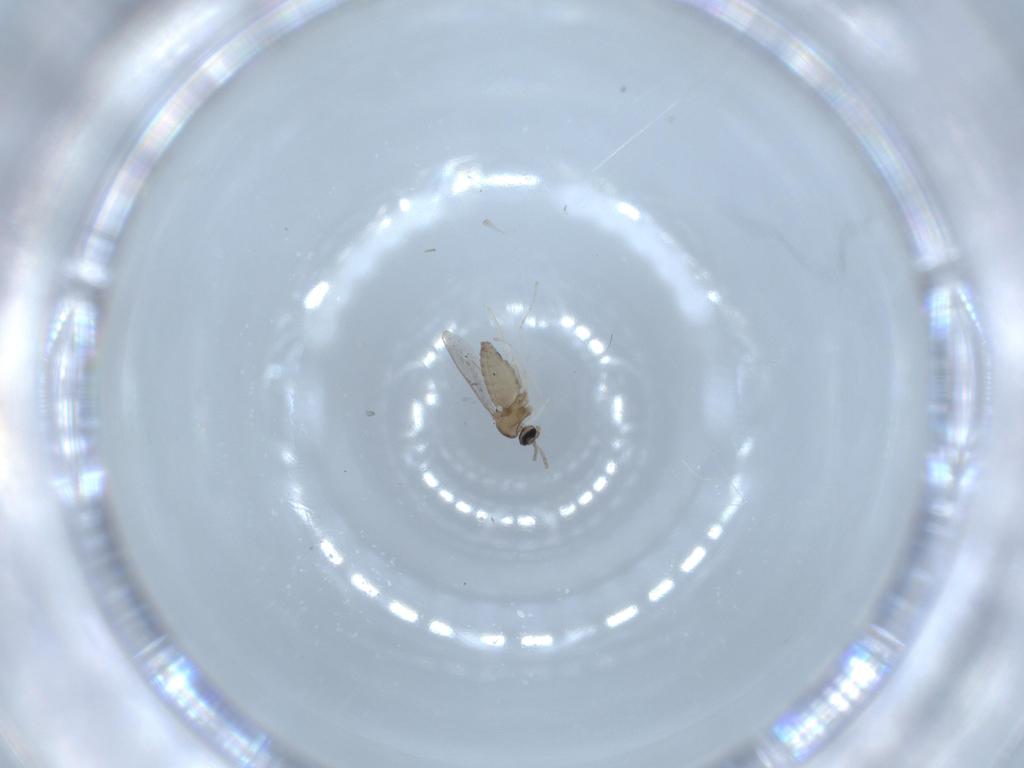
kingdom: Animalia
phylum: Arthropoda
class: Insecta
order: Diptera
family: Cecidomyiidae
